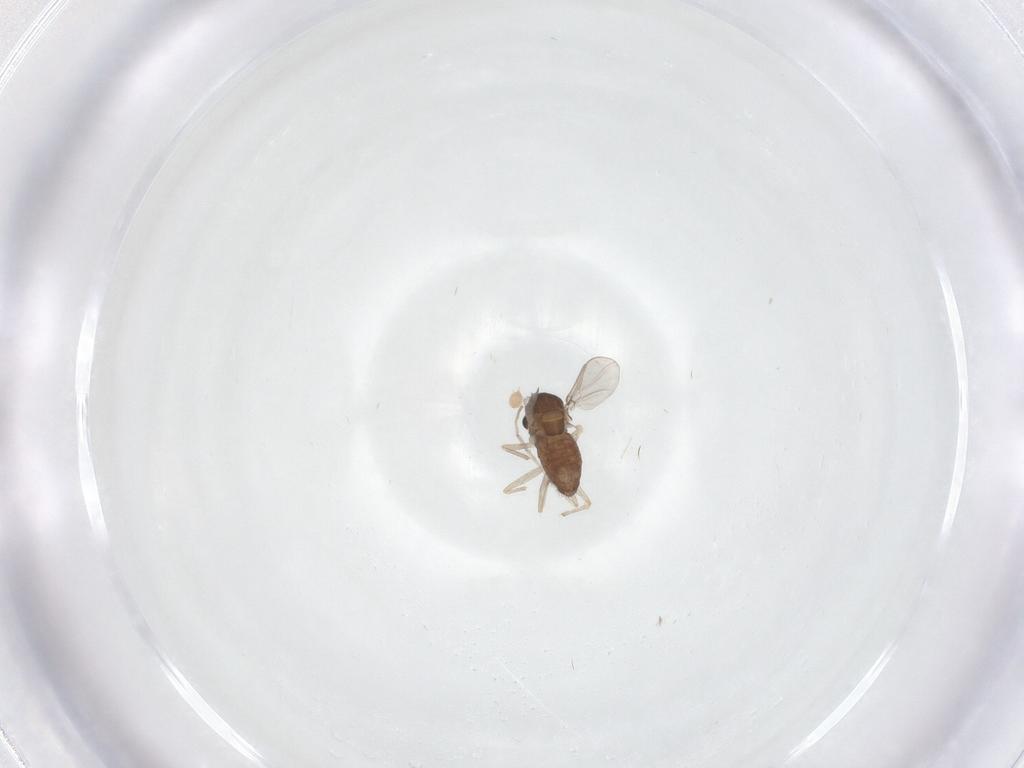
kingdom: Animalia
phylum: Arthropoda
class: Insecta
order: Diptera
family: Chironomidae
